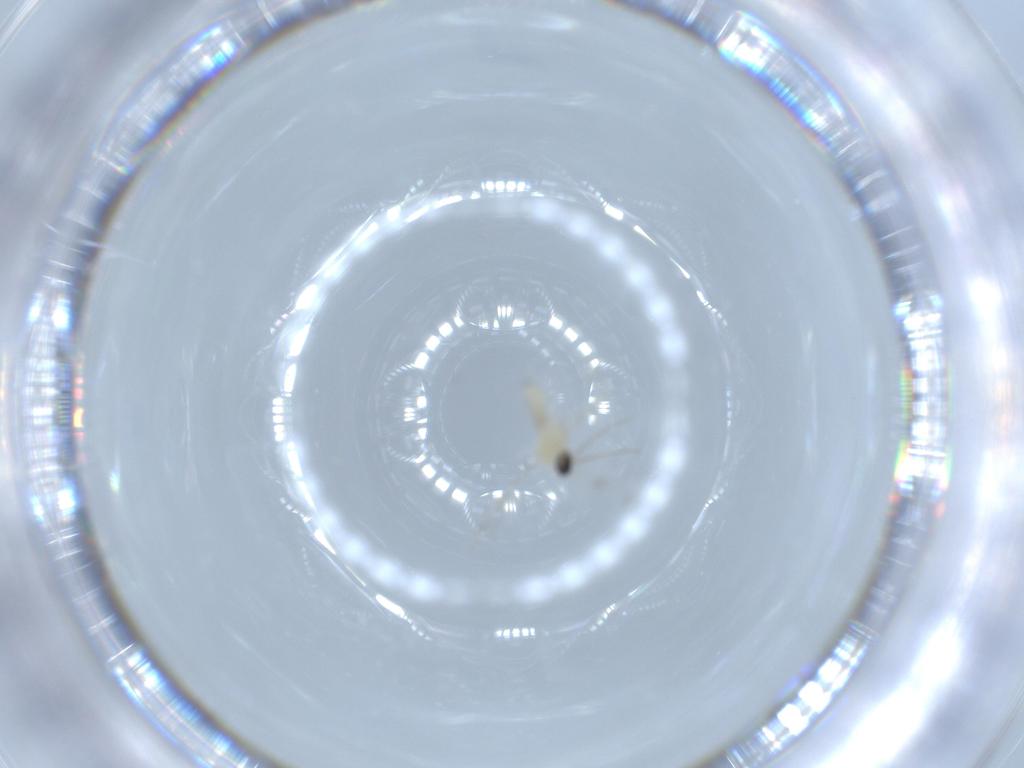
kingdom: Animalia
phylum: Arthropoda
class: Insecta
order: Diptera
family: Cecidomyiidae
